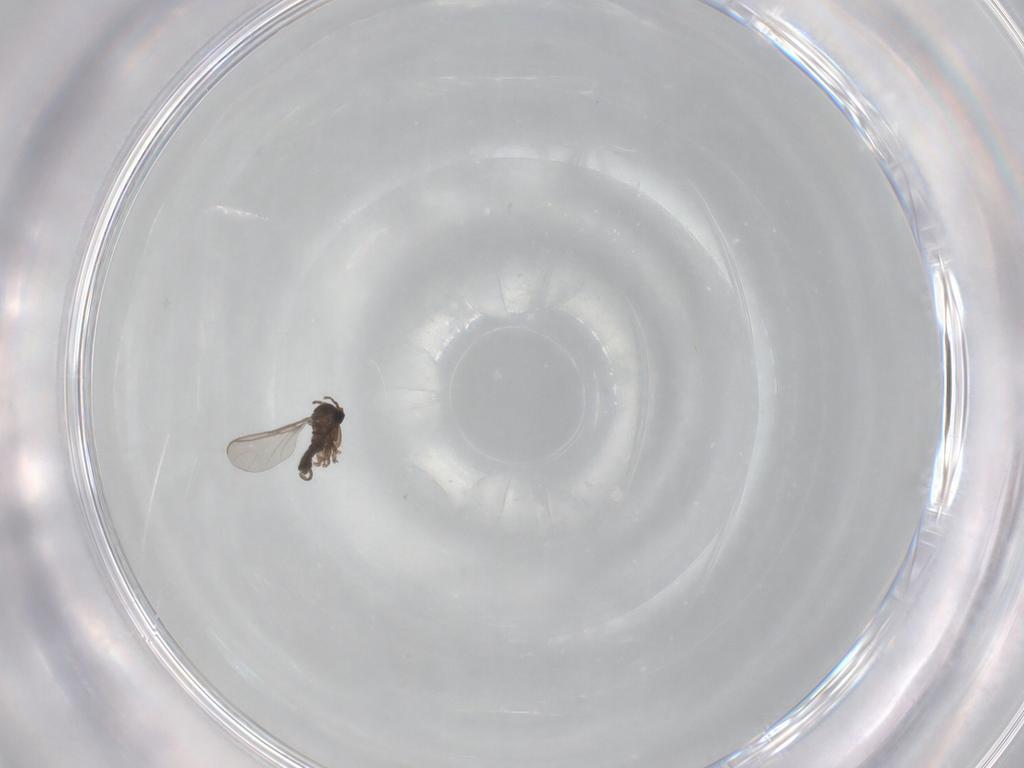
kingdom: Animalia
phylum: Arthropoda
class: Insecta
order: Diptera
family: Sciaridae
